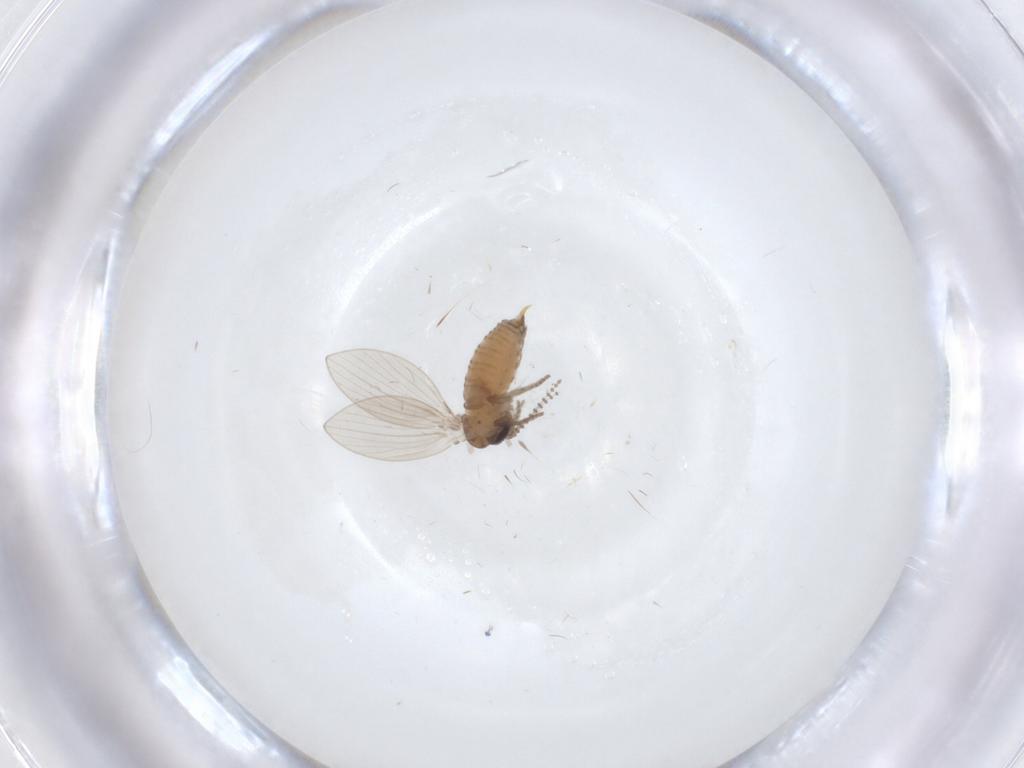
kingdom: Animalia
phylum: Arthropoda
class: Insecta
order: Diptera
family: Psychodidae
